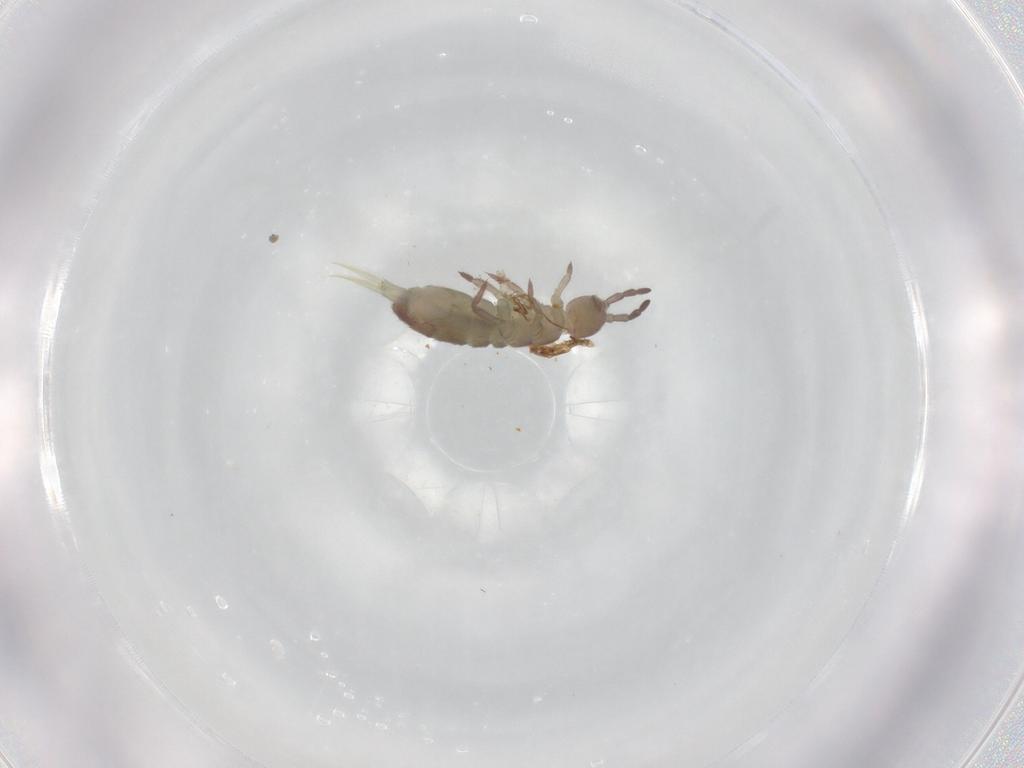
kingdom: Animalia
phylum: Arthropoda
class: Collembola
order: Entomobryomorpha
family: Isotomidae
